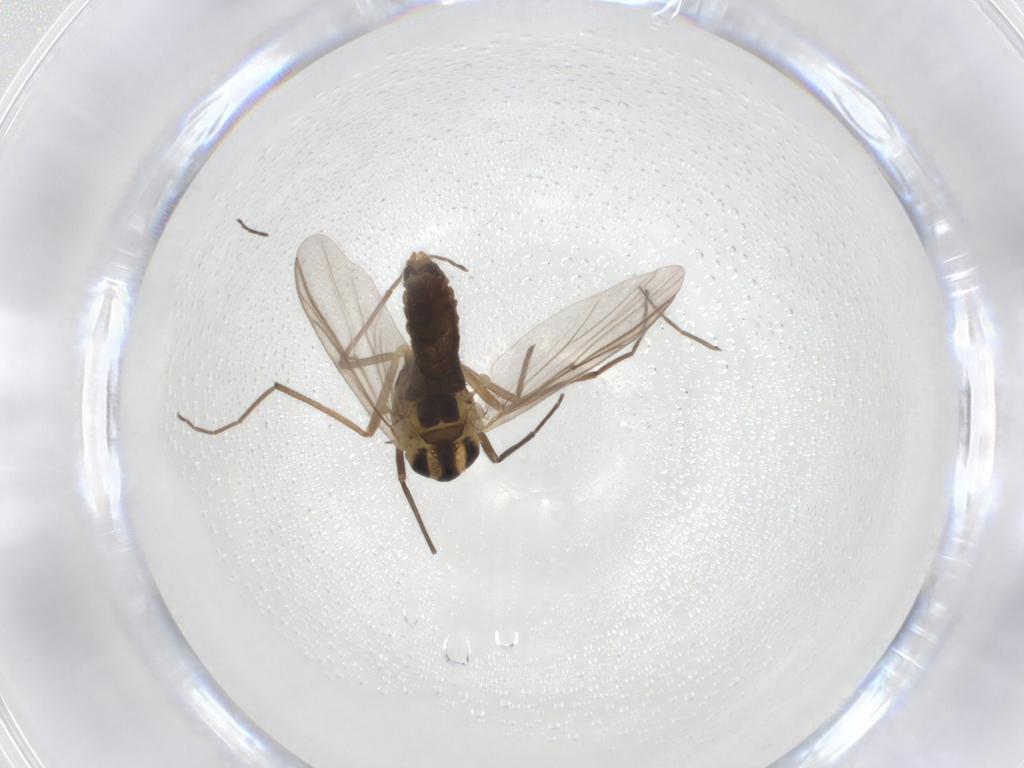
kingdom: Animalia
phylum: Arthropoda
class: Insecta
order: Diptera
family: Chironomidae
